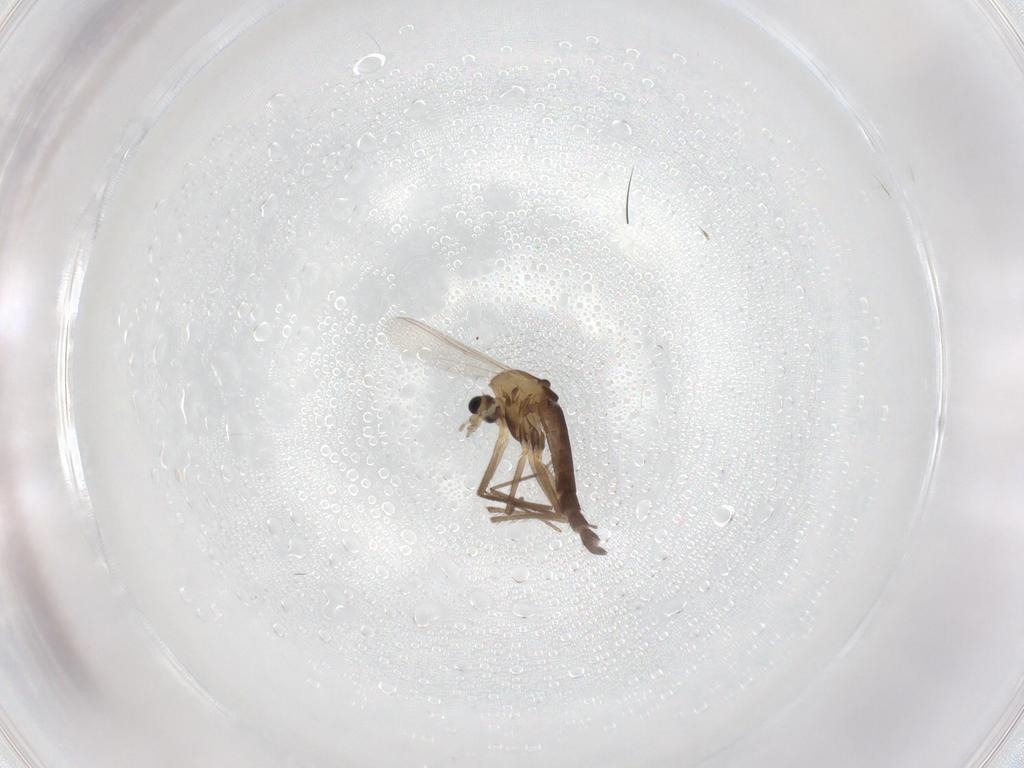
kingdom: Animalia
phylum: Arthropoda
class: Insecta
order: Diptera
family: Chironomidae
